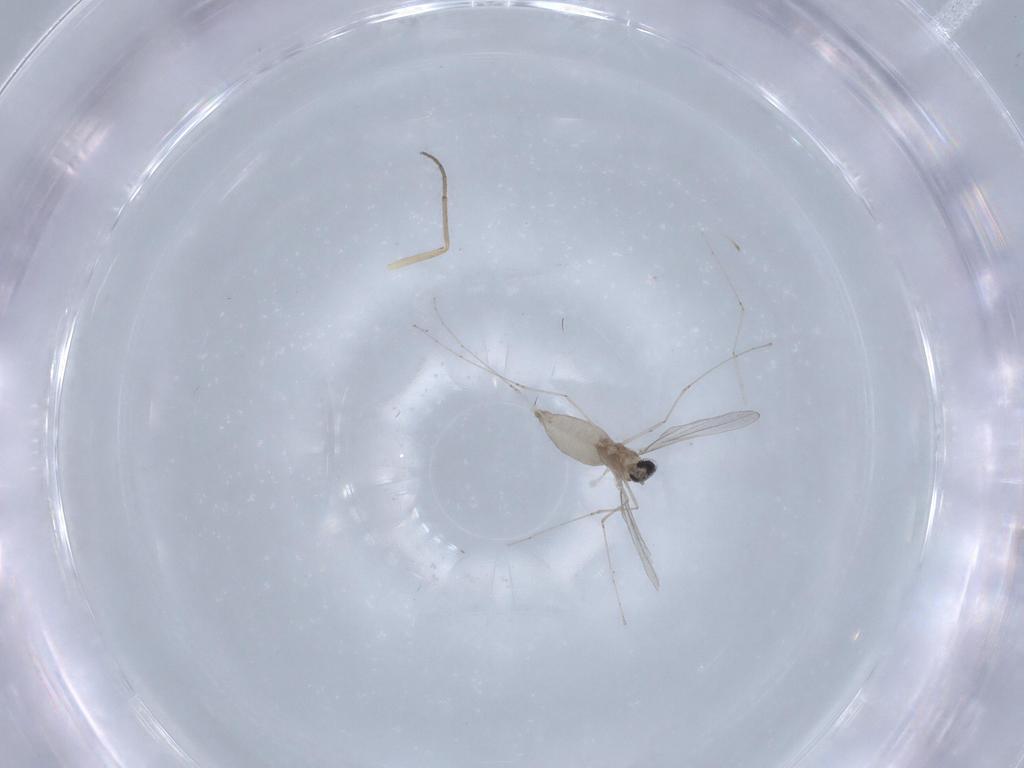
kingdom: Animalia
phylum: Arthropoda
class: Insecta
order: Diptera
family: Cecidomyiidae
